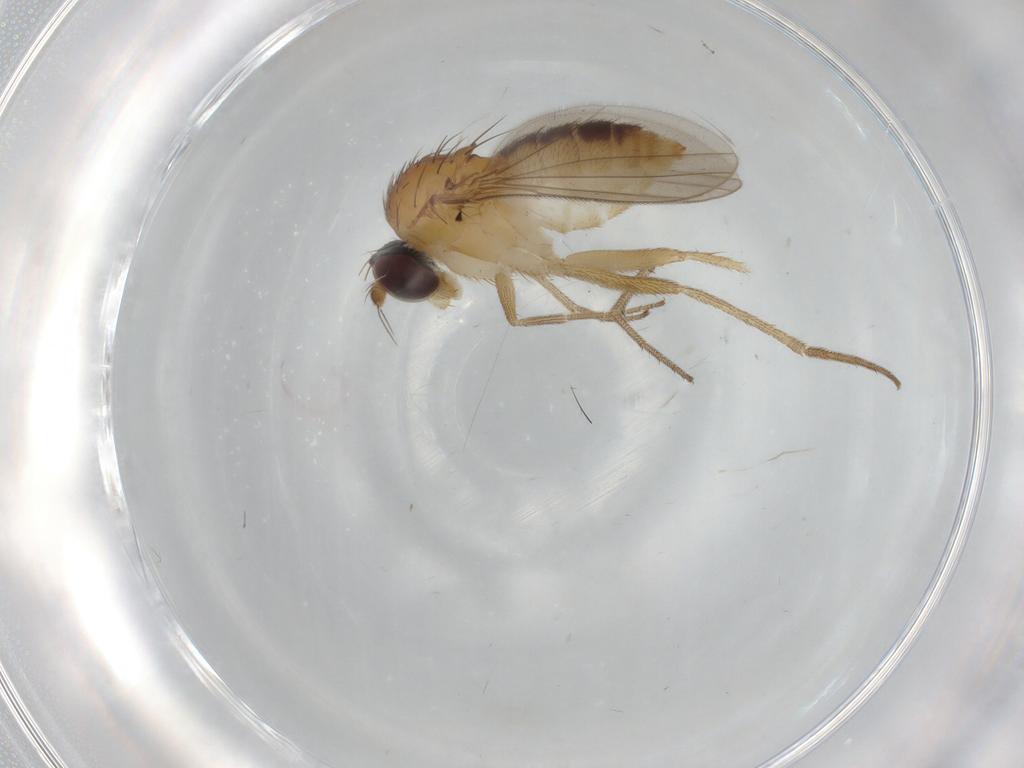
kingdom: Animalia
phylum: Arthropoda
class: Insecta
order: Diptera
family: Dolichopodidae
